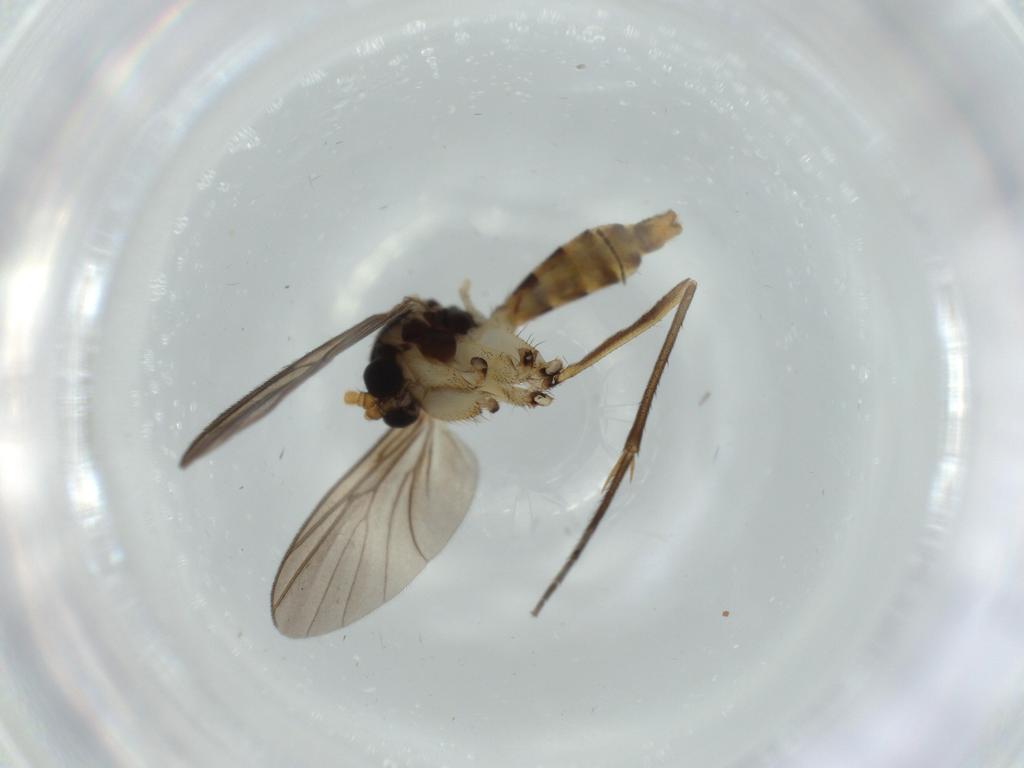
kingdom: Animalia
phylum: Arthropoda
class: Insecta
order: Diptera
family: Mycetophilidae
